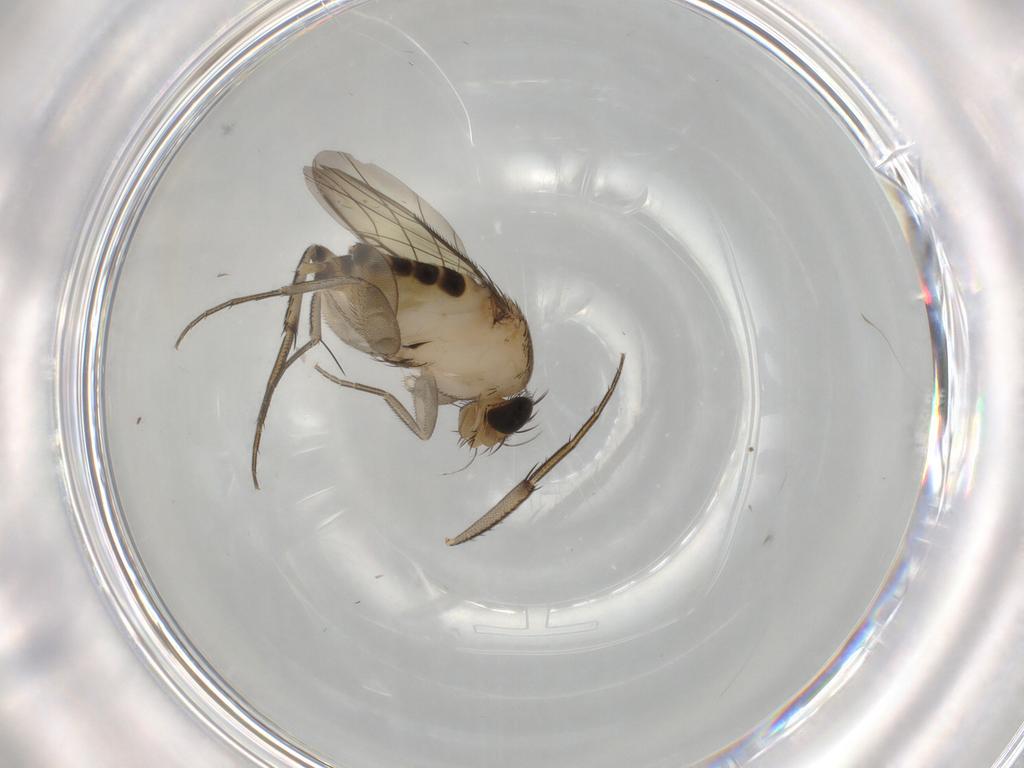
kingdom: Animalia
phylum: Arthropoda
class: Insecta
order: Diptera
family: Phoridae
